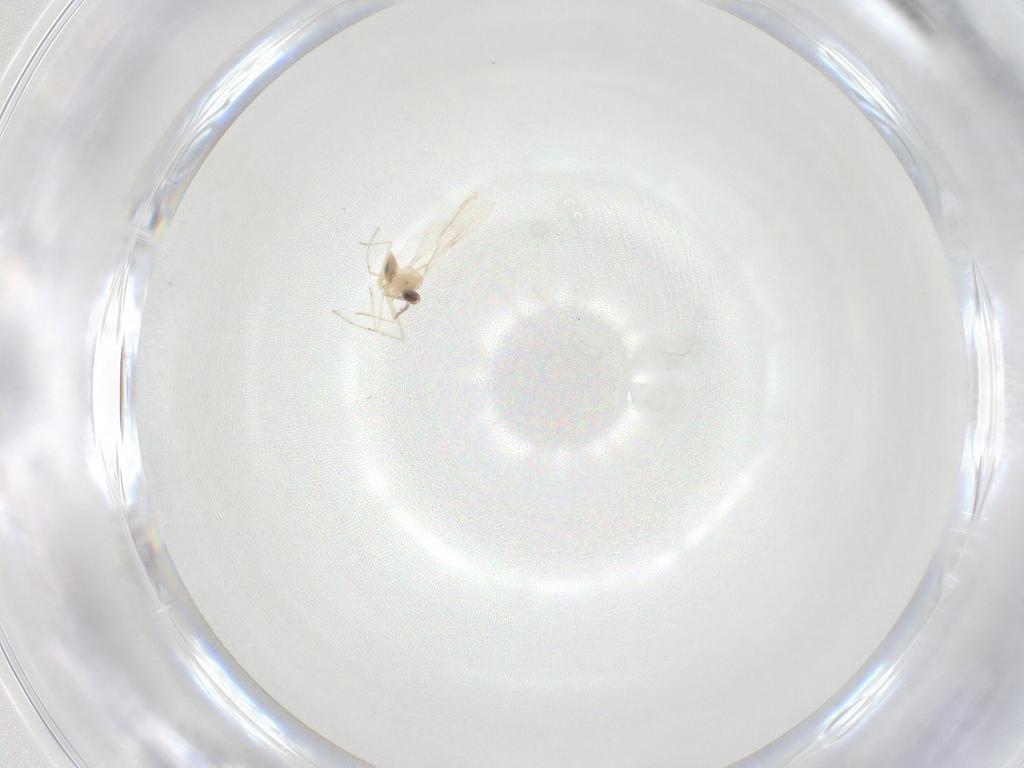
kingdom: Animalia
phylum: Arthropoda
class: Insecta
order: Diptera
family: Cecidomyiidae
